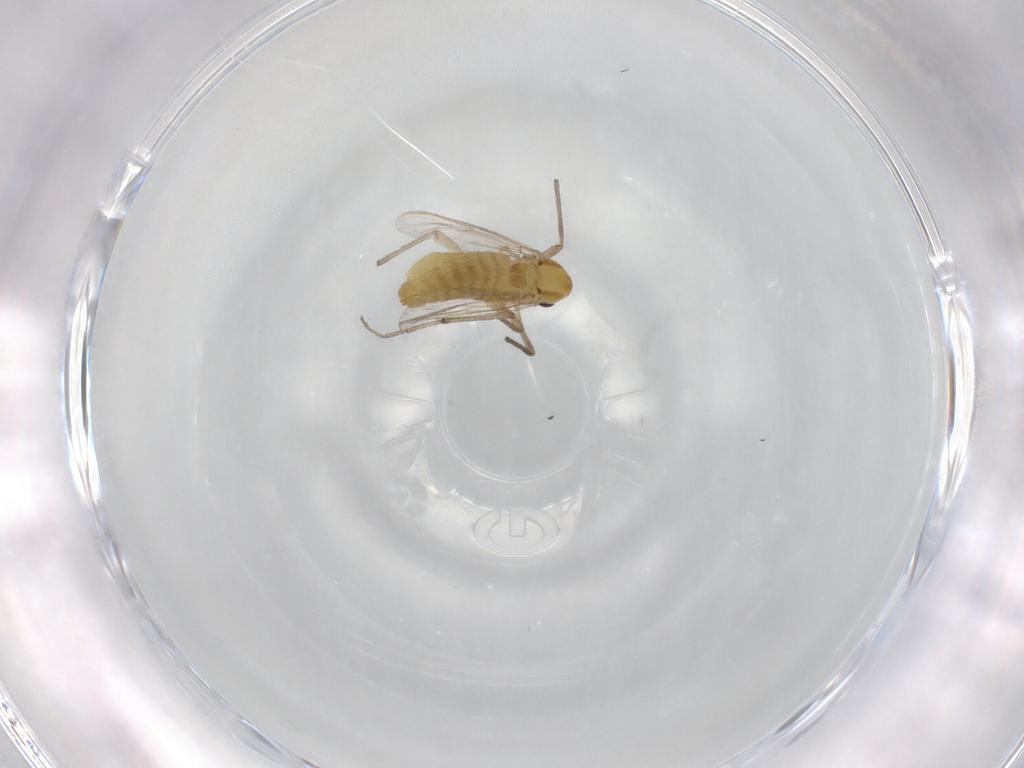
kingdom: Animalia
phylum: Arthropoda
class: Insecta
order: Diptera
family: Chironomidae
